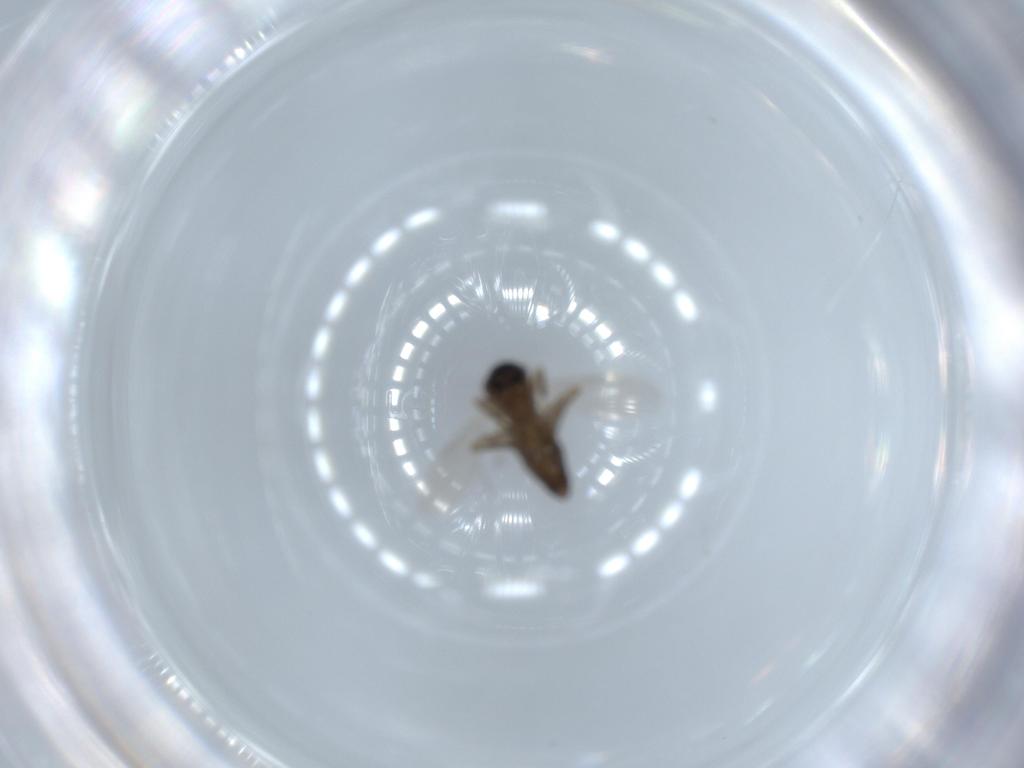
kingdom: Animalia
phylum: Arthropoda
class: Insecta
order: Diptera
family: Ceratopogonidae
